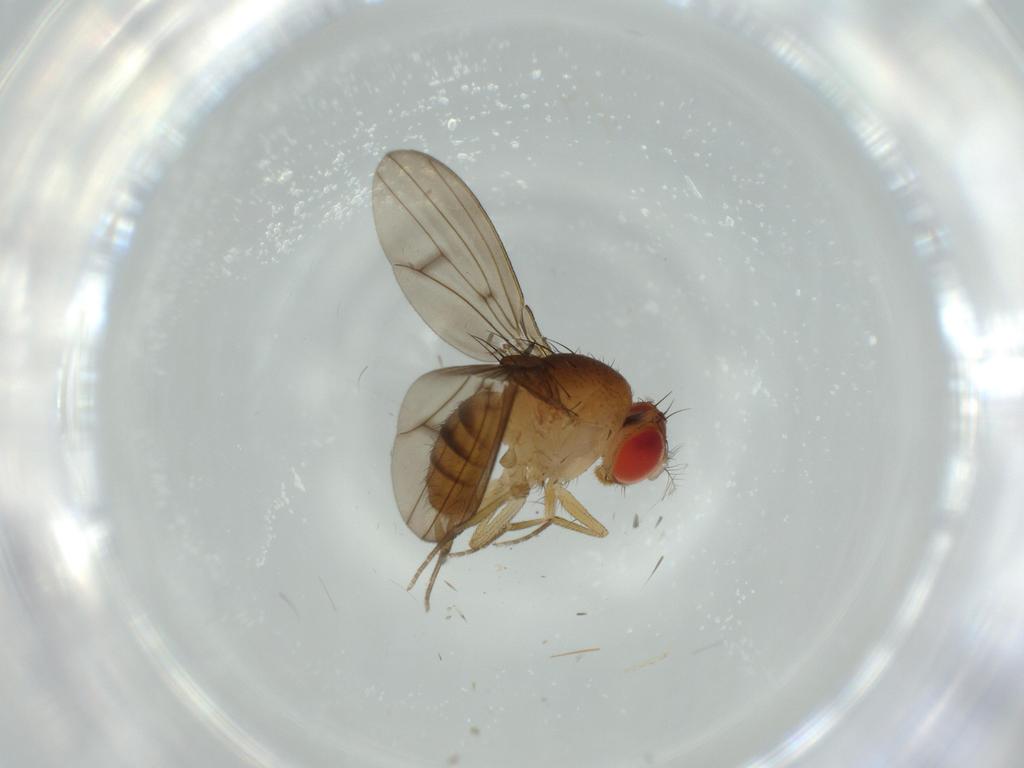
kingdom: Animalia
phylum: Arthropoda
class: Insecta
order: Diptera
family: Drosophilidae
